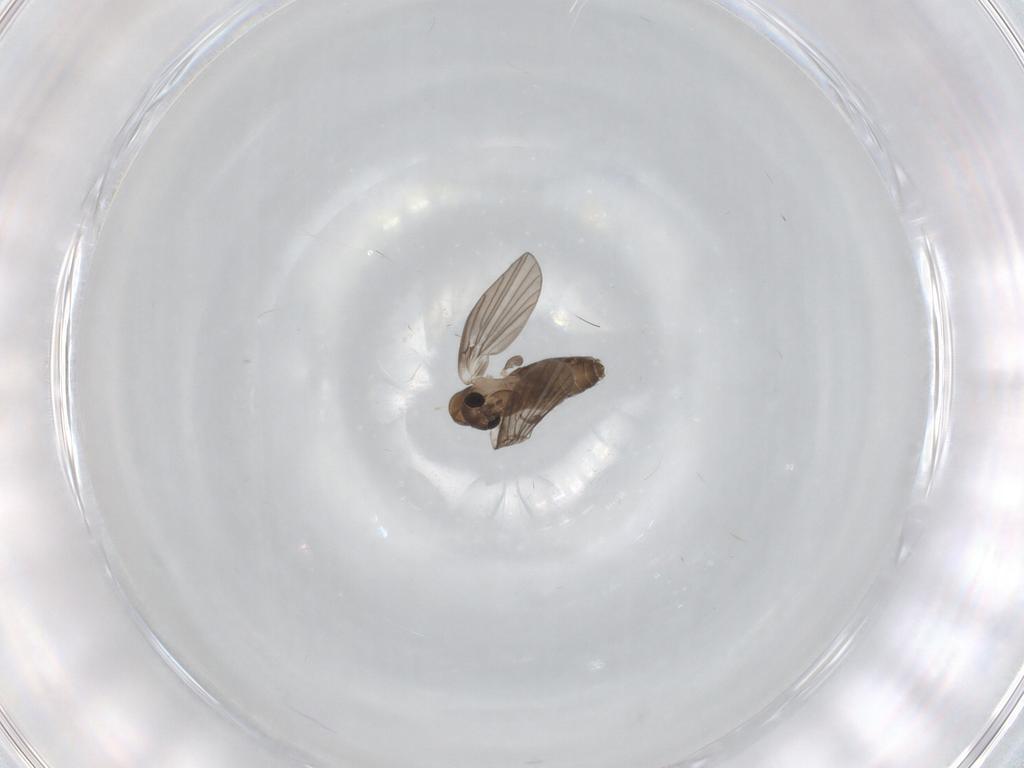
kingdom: Animalia
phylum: Arthropoda
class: Insecta
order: Diptera
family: Psychodidae
